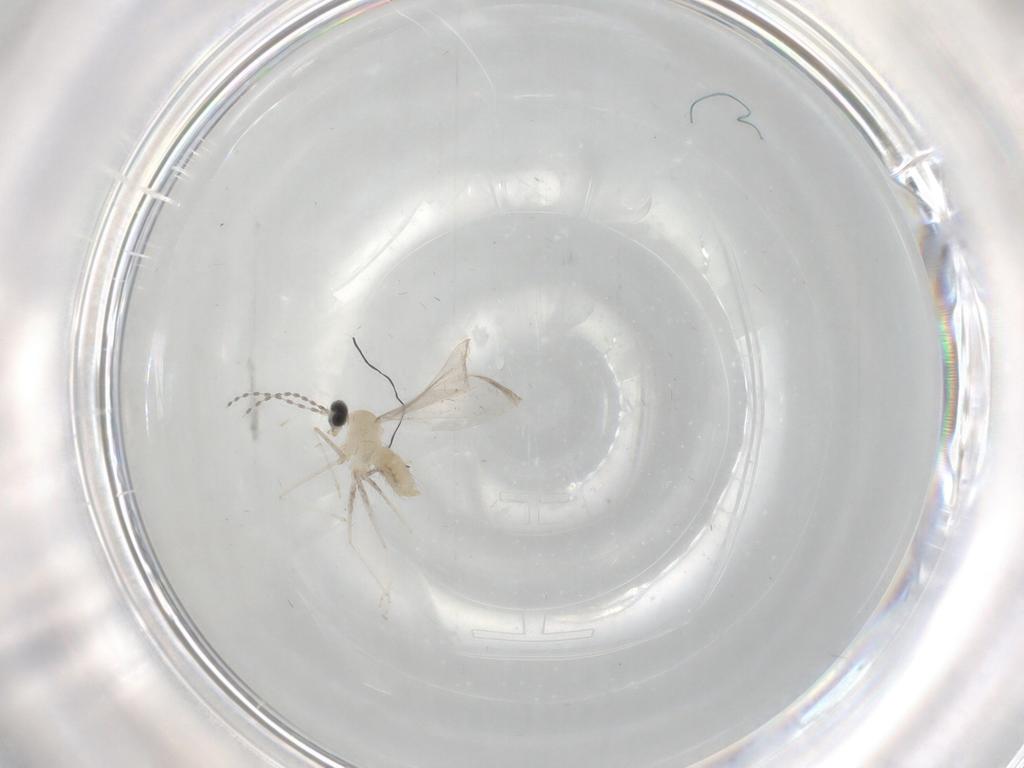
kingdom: Animalia
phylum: Arthropoda
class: Insecta
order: Diptera
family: Cecidomyiidae
